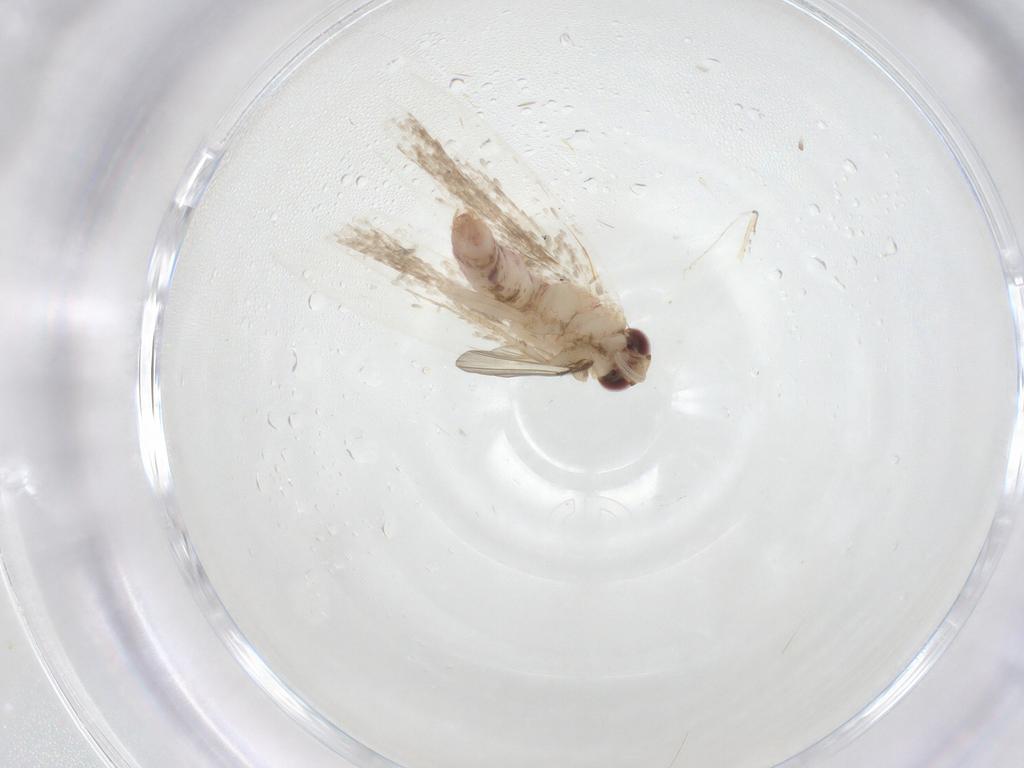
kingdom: Animalia
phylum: Arthropoda
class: Insecta
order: Lepidoptera
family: Gelechiidae
